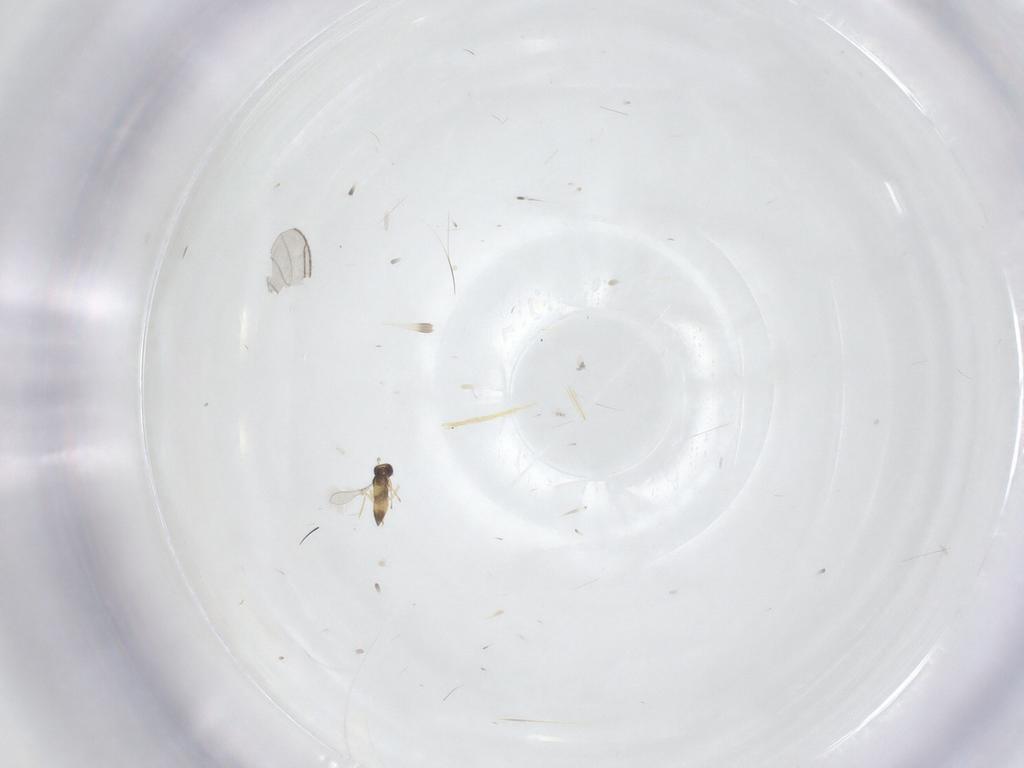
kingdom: Animalia
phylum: Arthropoda
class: Insecta
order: Hymenoptera
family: Mymaridae
